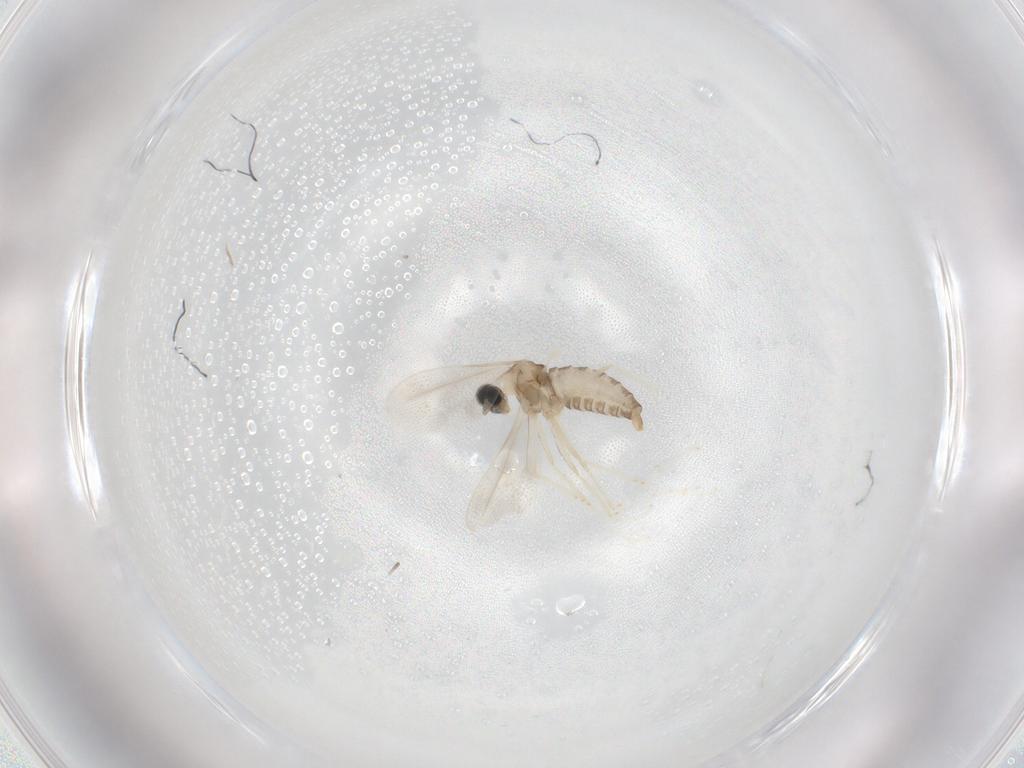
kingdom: Animalia
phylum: Arthropoda
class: Insecta
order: Diptera
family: Cecidomyiidae
